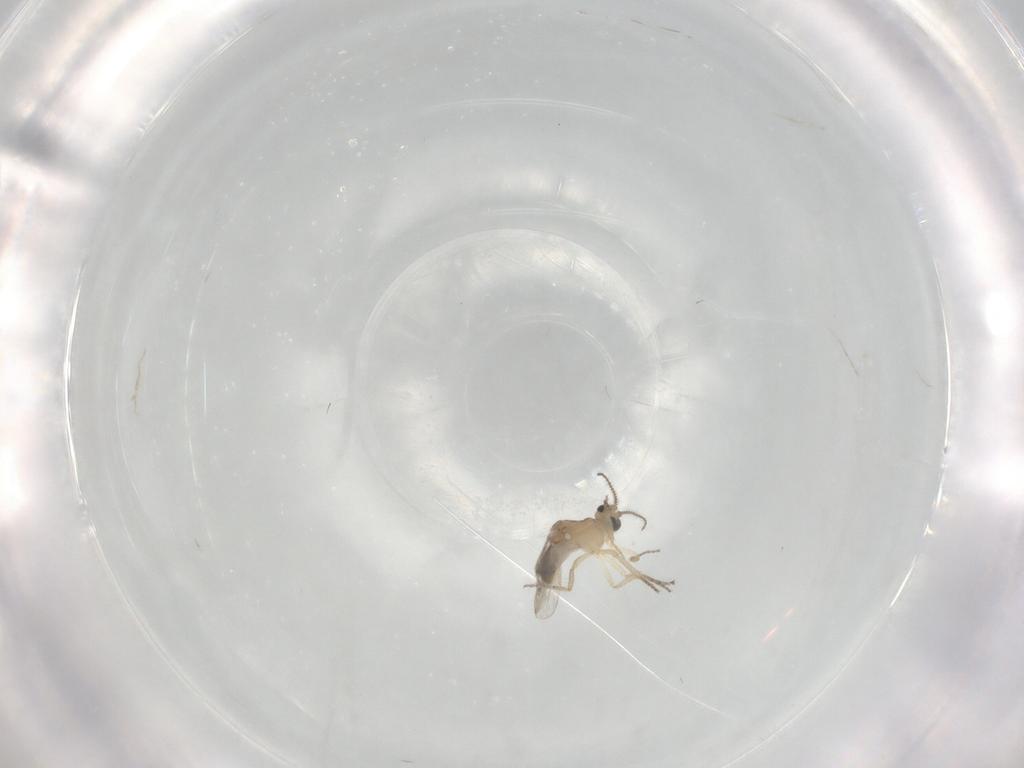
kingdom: Animalia
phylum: Arthropoda
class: Insecta
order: Diptera
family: Ceratopogonidae
